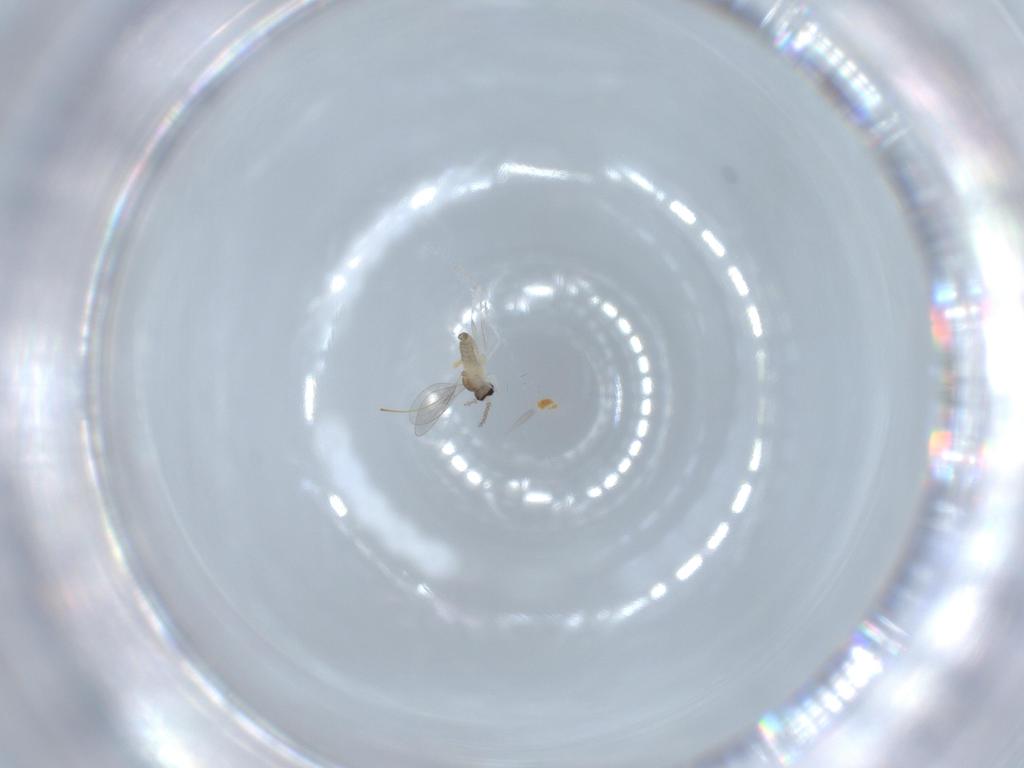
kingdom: Animalia
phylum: Arthropoda
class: Insecta
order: Diptera
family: Cecidomyiidae
